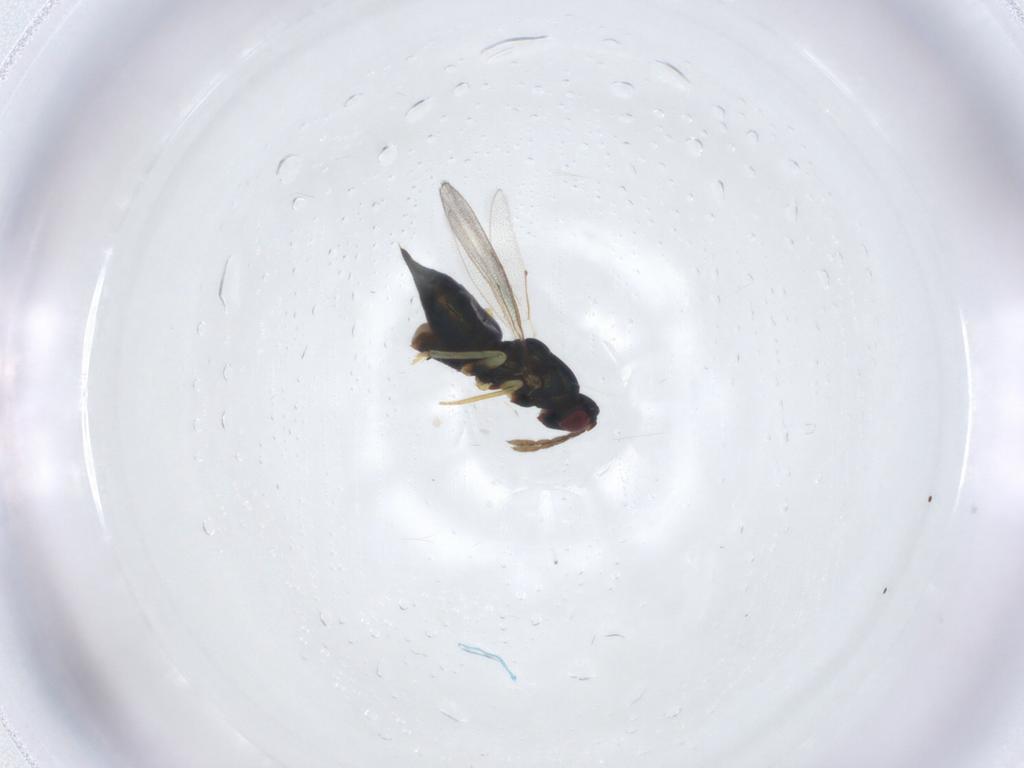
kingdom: Animalia
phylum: Arthropoda
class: Insecta
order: Hymenoptera
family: Eulophidae
